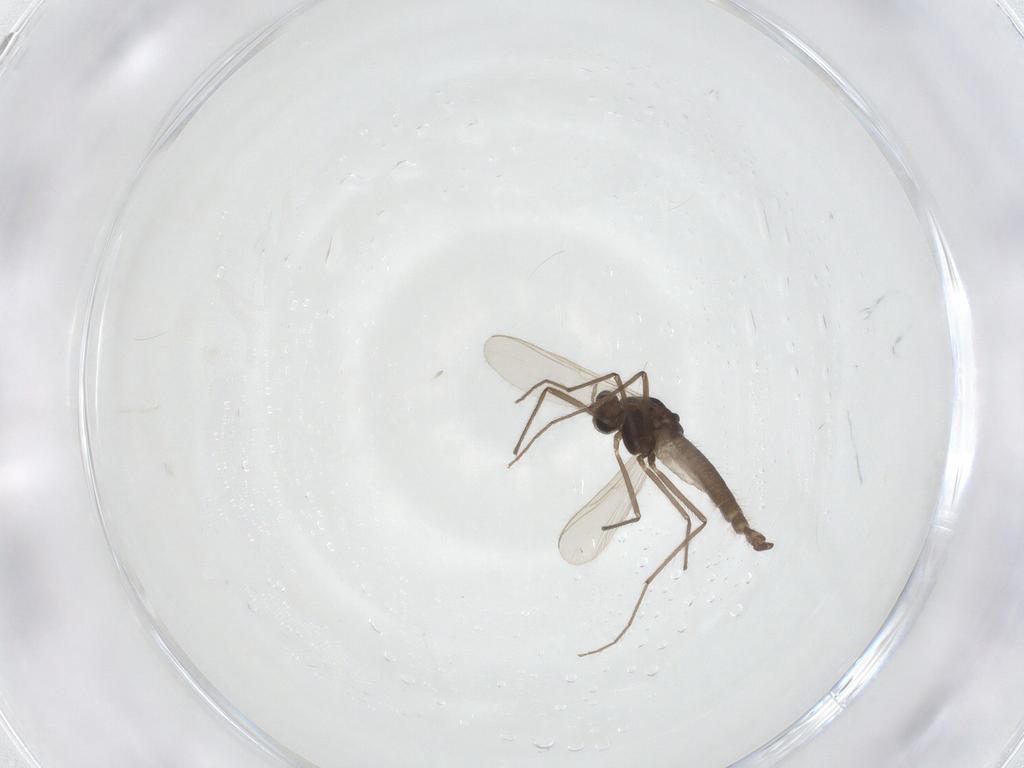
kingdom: Animalia
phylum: Arthropoda
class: Insecta
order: Diptera
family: Chironomidae
